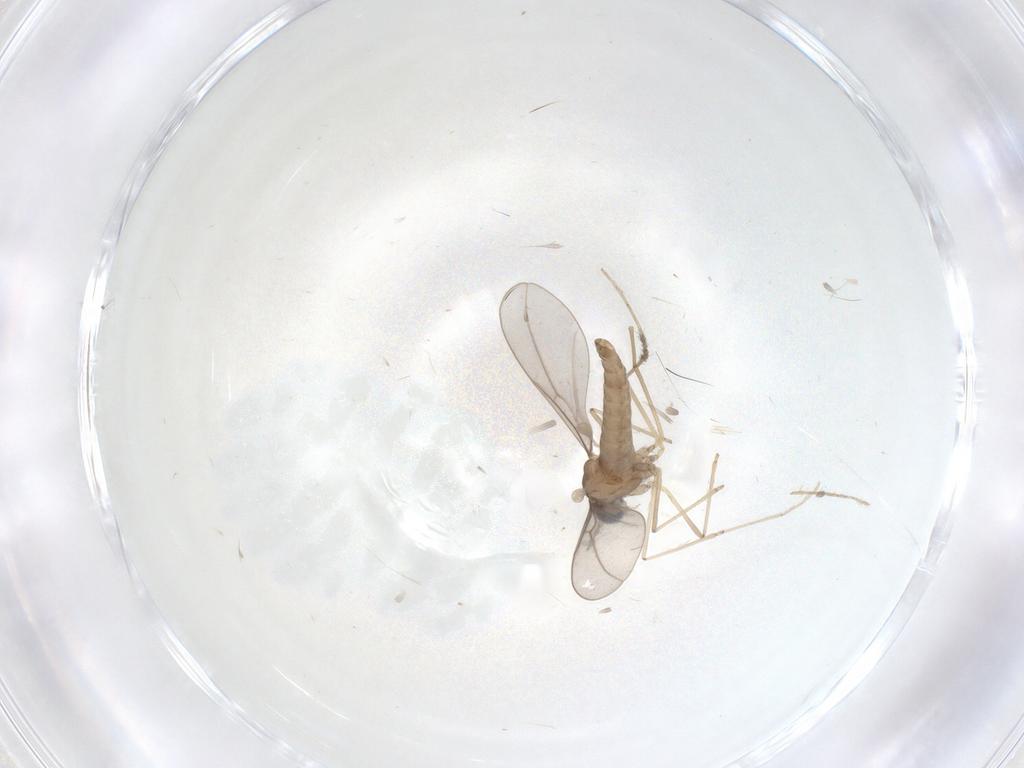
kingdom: Animalia
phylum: Arthropoda
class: Insecta
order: Diptera
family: Cecidomyiidae
